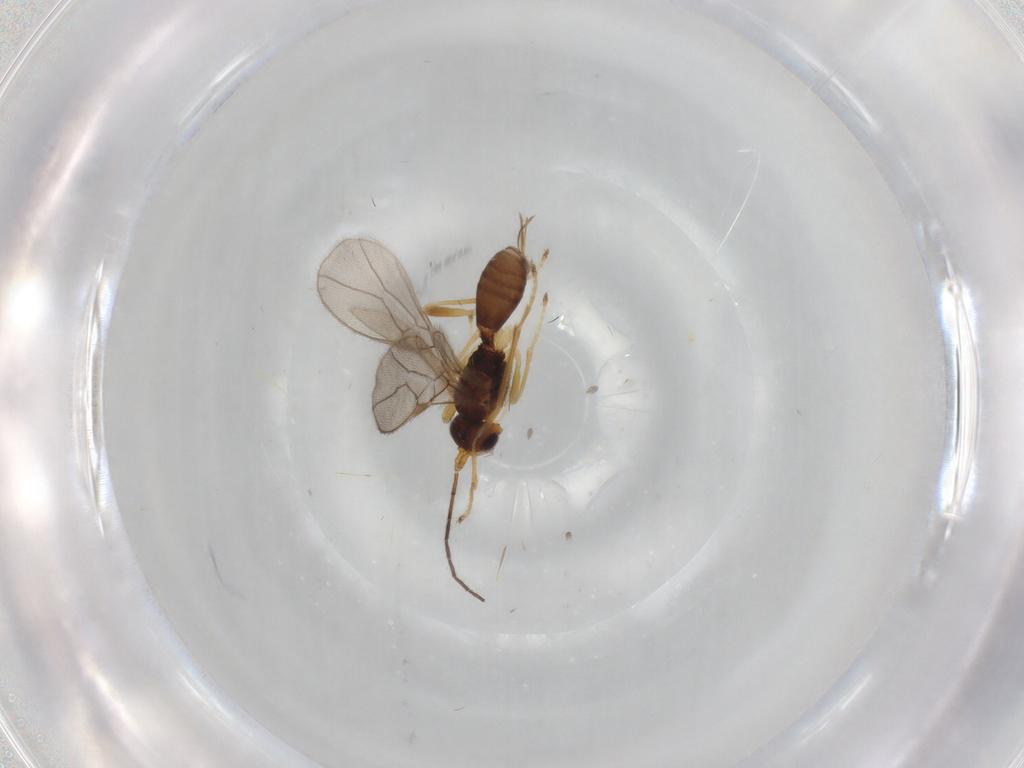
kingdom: Animalia
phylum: Arthropoda
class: Insecta
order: Hymenoptera
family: Braconidae
